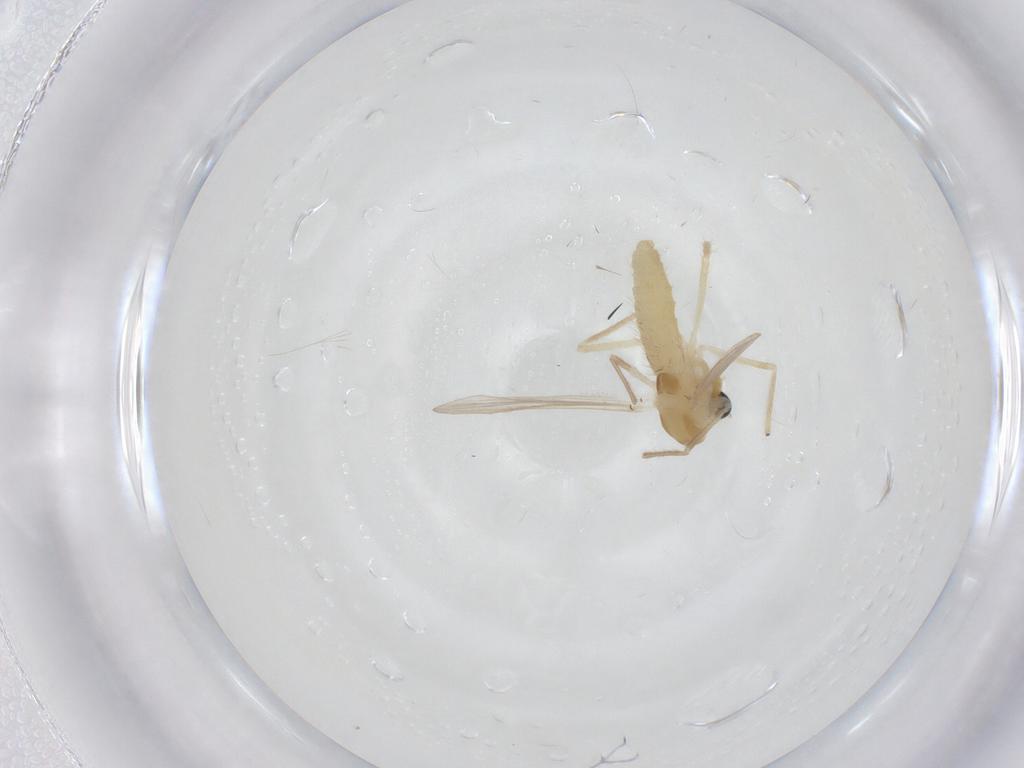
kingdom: Animalia
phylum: Arthropoda
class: Insecta
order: Diptera
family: Chironomidae
